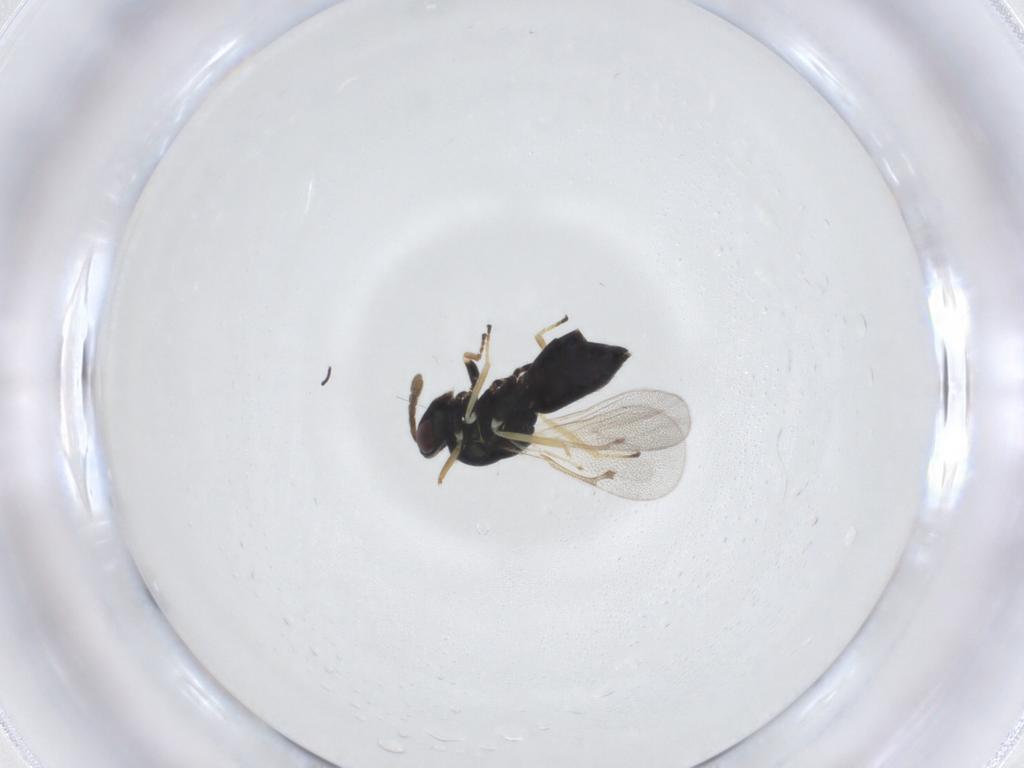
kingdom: Animalia
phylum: Arthropoda
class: Insecta
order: Hymenoptera
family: Eulophidae
